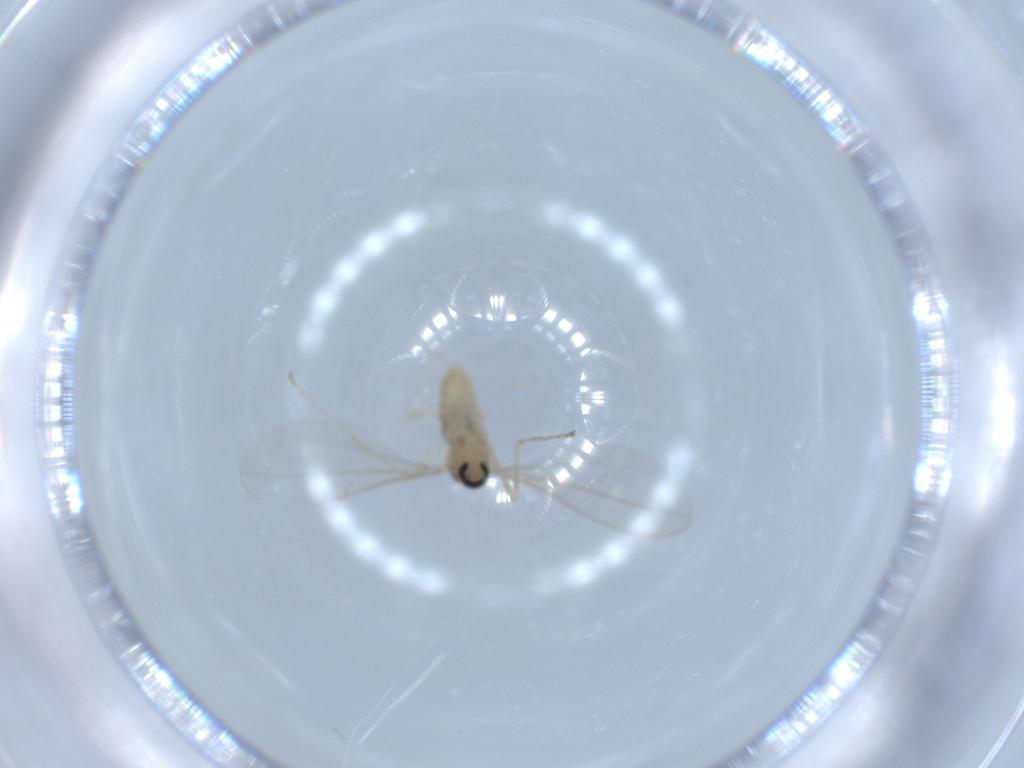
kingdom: Animalia
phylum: Arthropoda
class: Insecta
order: Diptera
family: Cecidomyiidae
